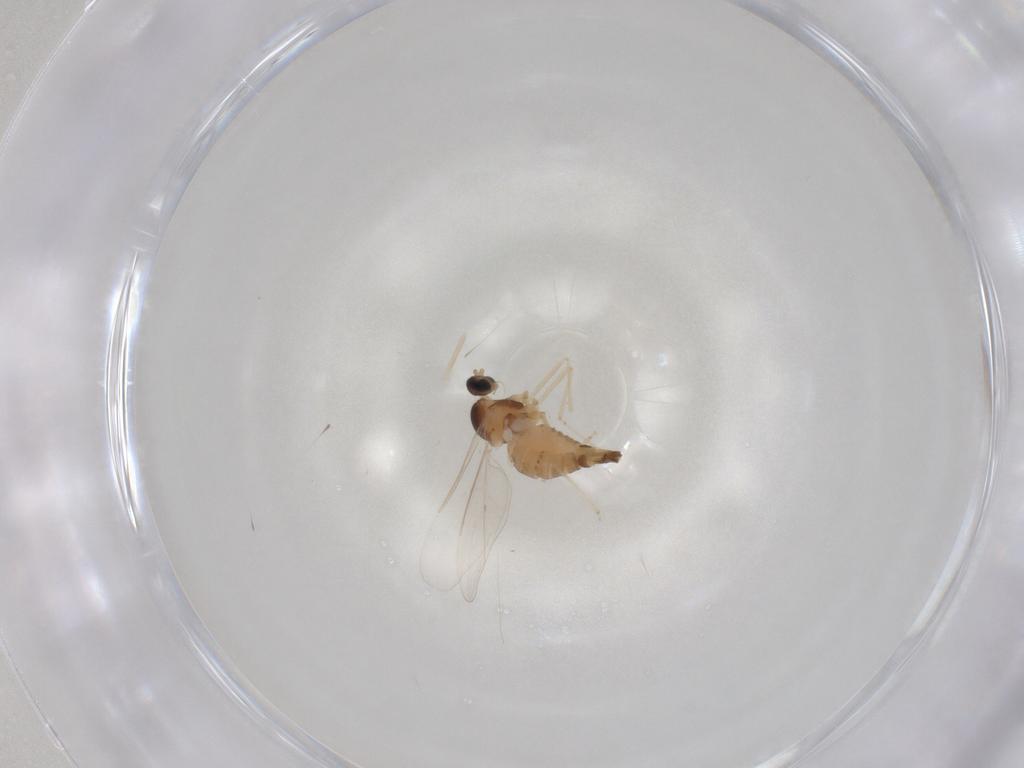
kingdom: Animalia
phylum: Arthropoda
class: Insecta
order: Diptera
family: Cecidomyiidae
